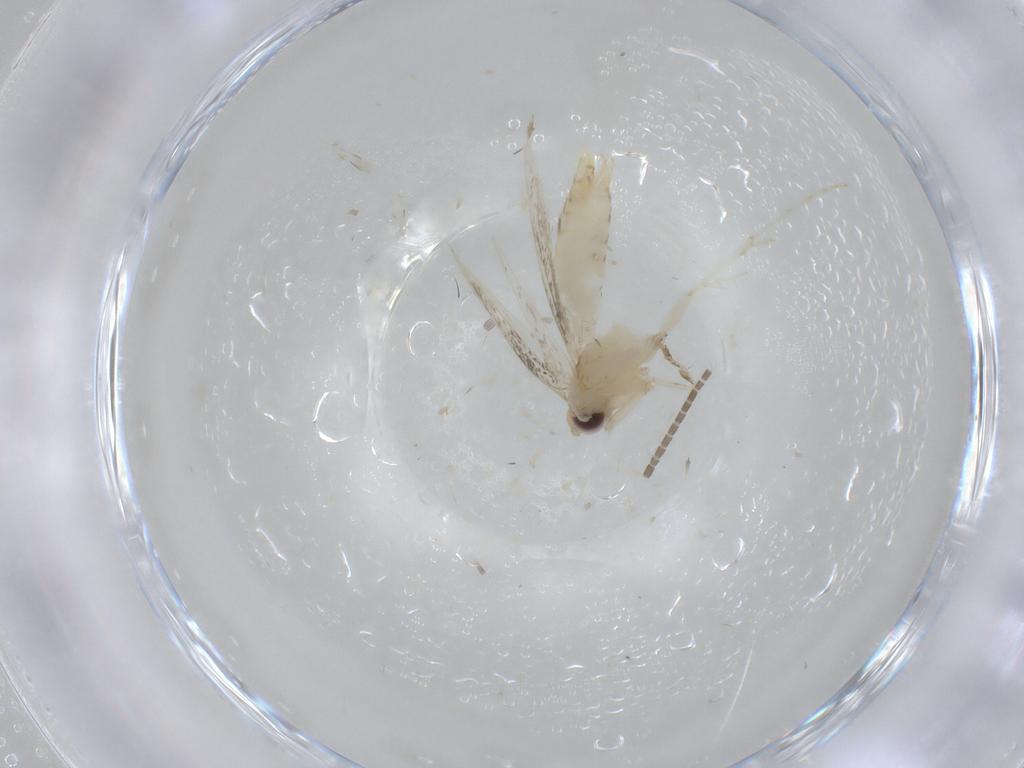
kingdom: Animalia
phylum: Arthropoda
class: Insecta
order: Lepidoptera
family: Gracillariidae
